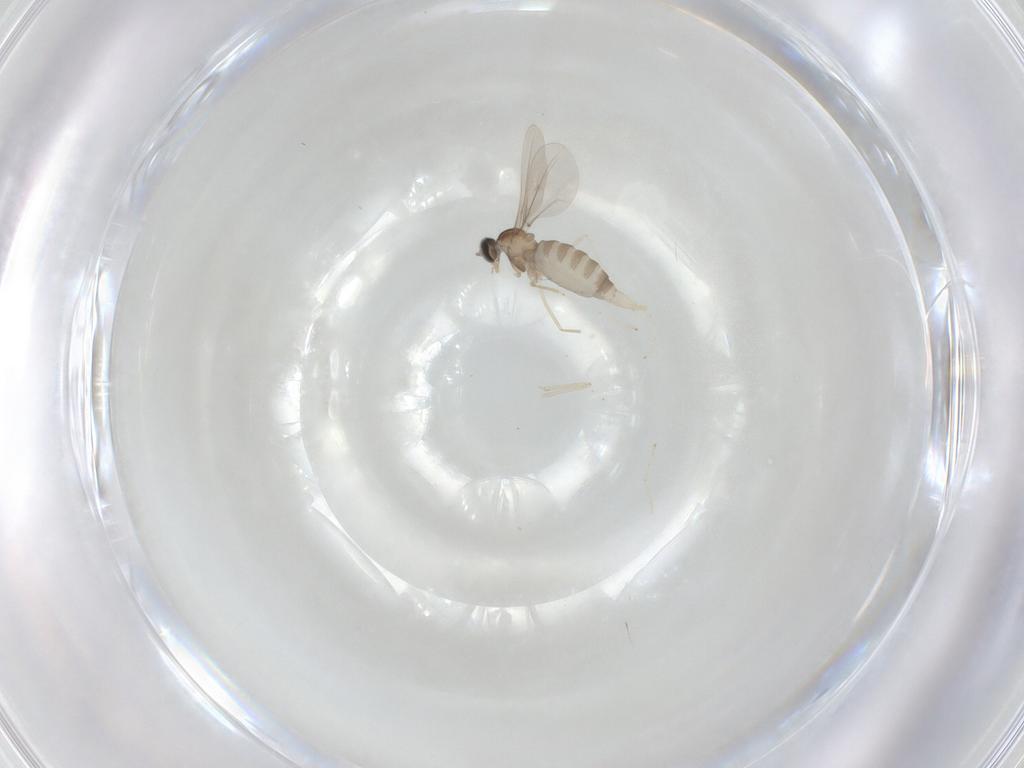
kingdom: Animalia
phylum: Arthropoda
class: Insecta
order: Diptera
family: Cecidomyiidae
